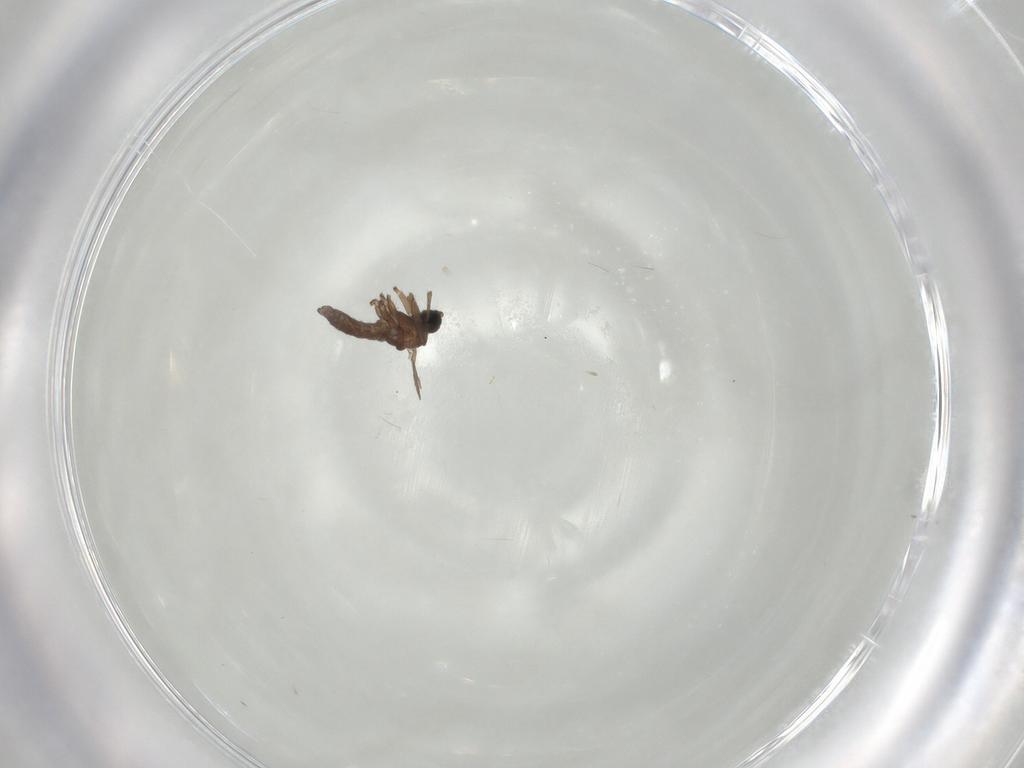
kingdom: Animalia
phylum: Arthropoda
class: Insecta
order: Diptera
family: Sciaridae
